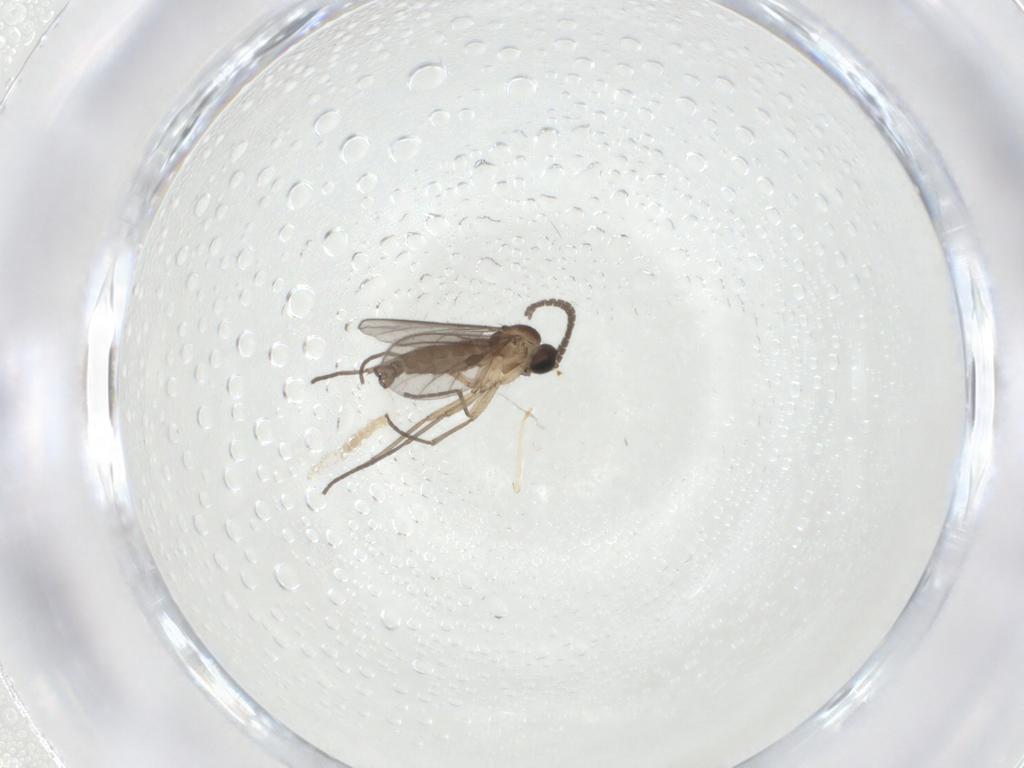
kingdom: Animalia
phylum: Arthropoda
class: Insecta
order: Diptera
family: Sciaridae
